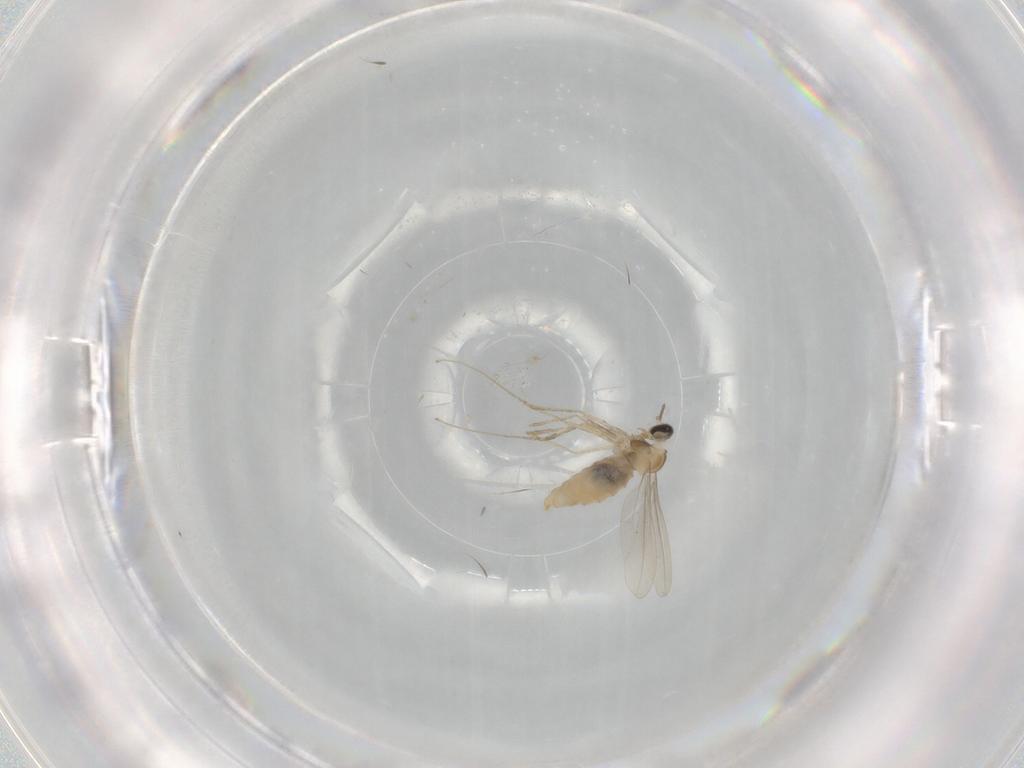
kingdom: Animalia
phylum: Arthropoda
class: Insecta
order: Diptera
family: Cecidomyiidae
